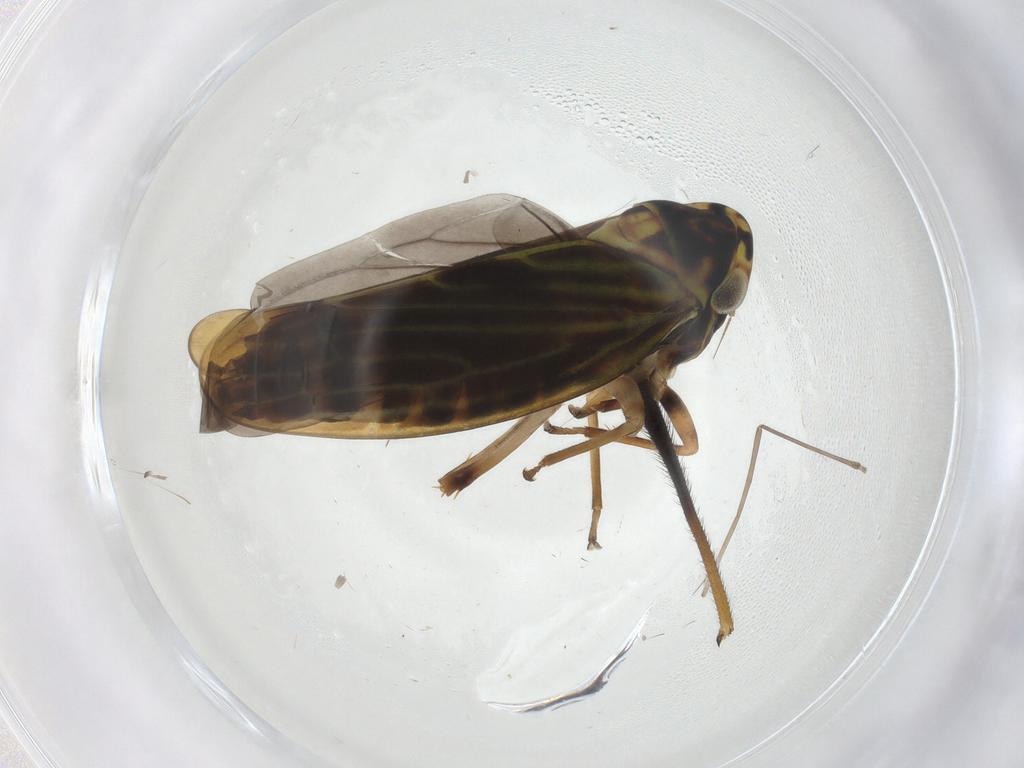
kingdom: Animalia
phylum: Arthropoda
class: Insecta
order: Hemiptera
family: Cicadellidae
